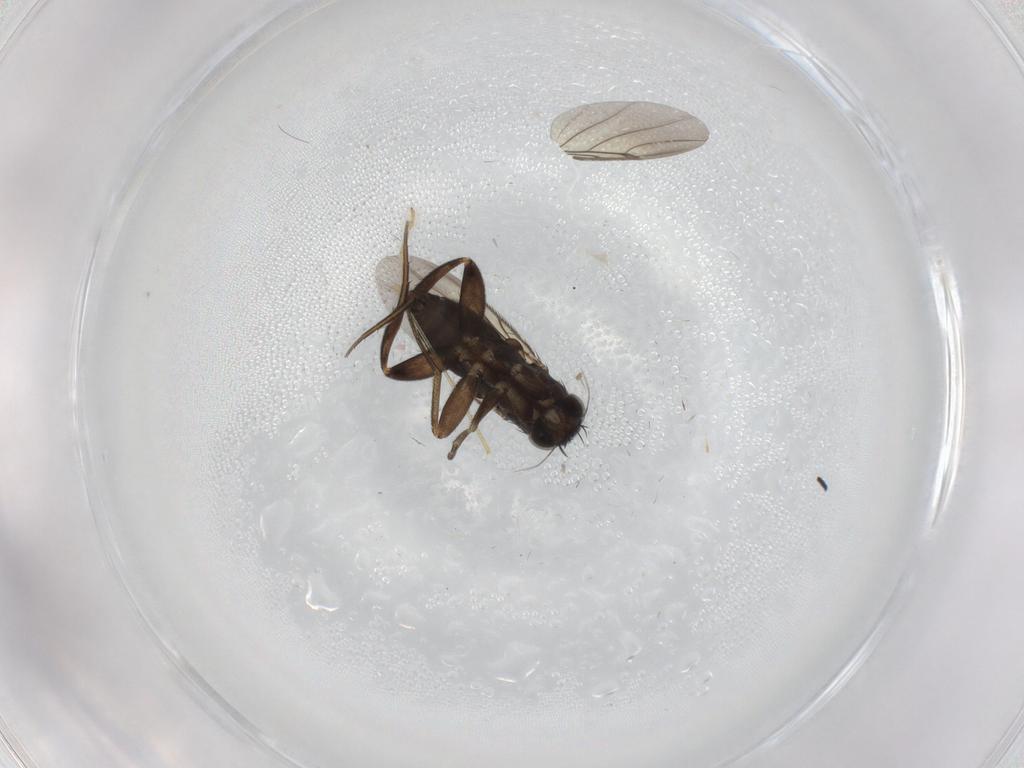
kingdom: Animalia
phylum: Arthropoda
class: Insecta
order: Diptera
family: Phoridae
